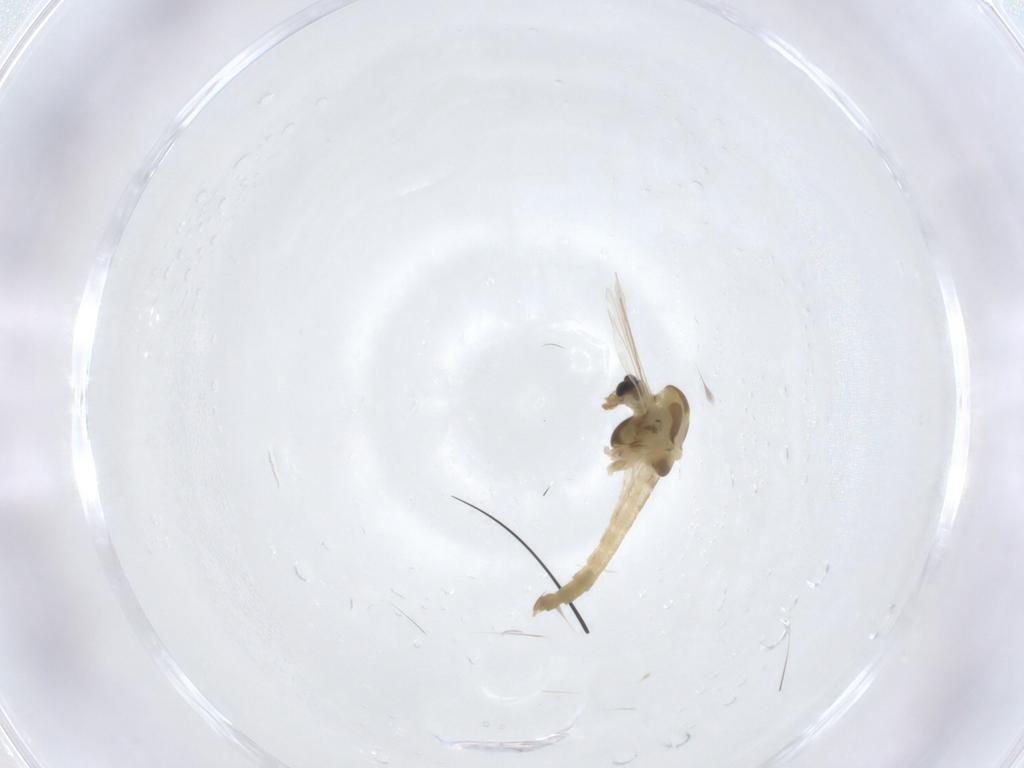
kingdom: Animalia
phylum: Arthropoda
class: Insecta
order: Diptera
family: Chironomidae
